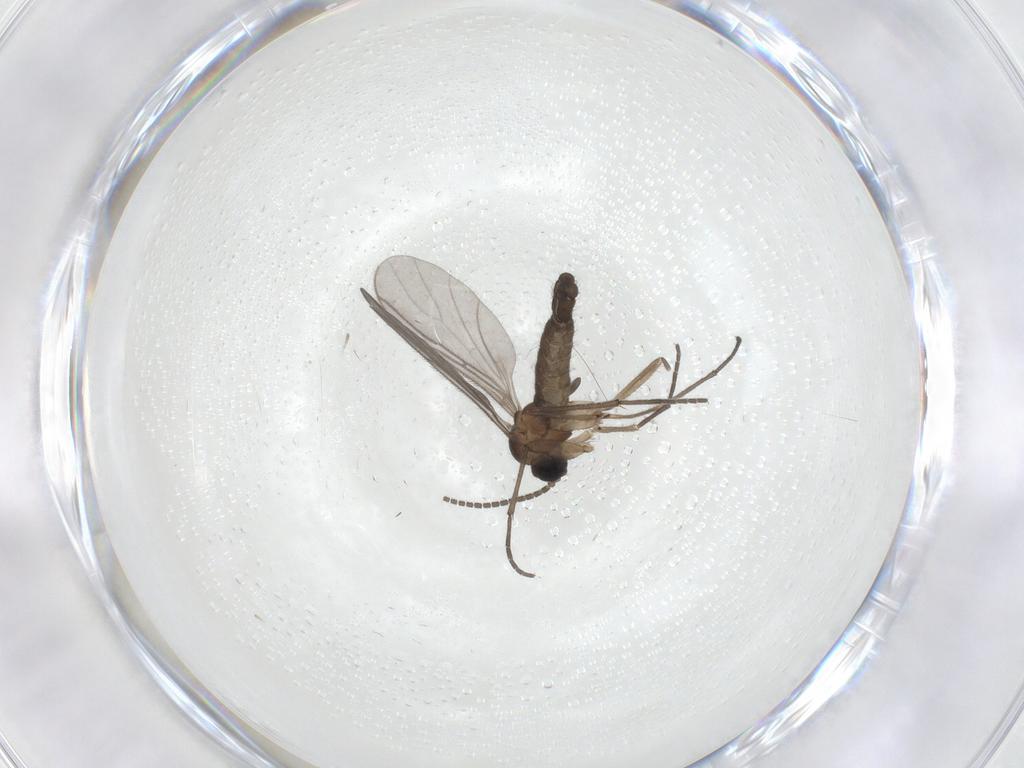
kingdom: Animalia
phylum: Arthropoda
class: Insecta
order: Diptera
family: Sciaridae
